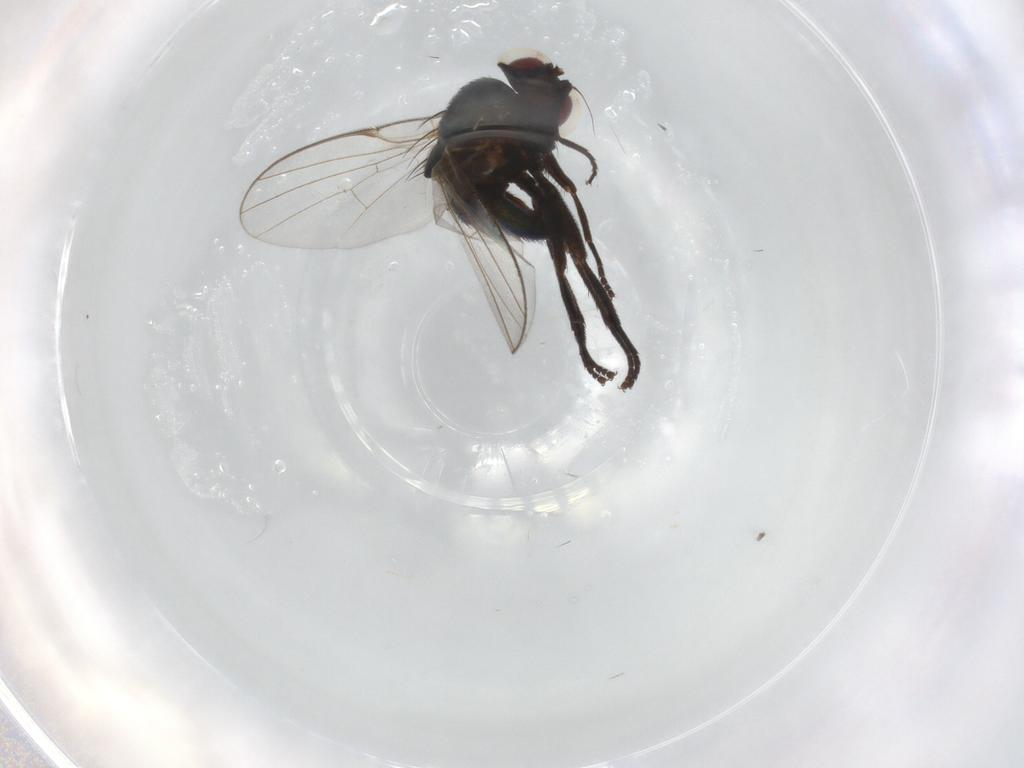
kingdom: Animalia
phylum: Arthropoda
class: Insecta
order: Diptera
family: Agromyzidae
